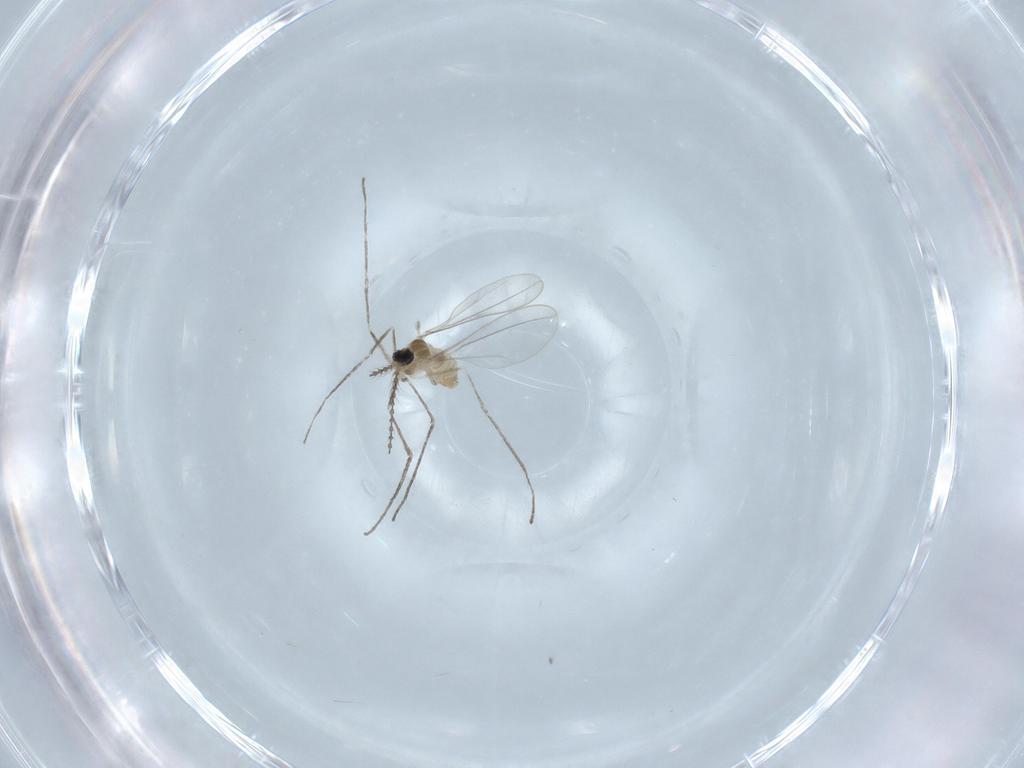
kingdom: Animalia
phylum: Arthropoda
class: Insecta
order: Diptera
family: Cecidomyiidae
